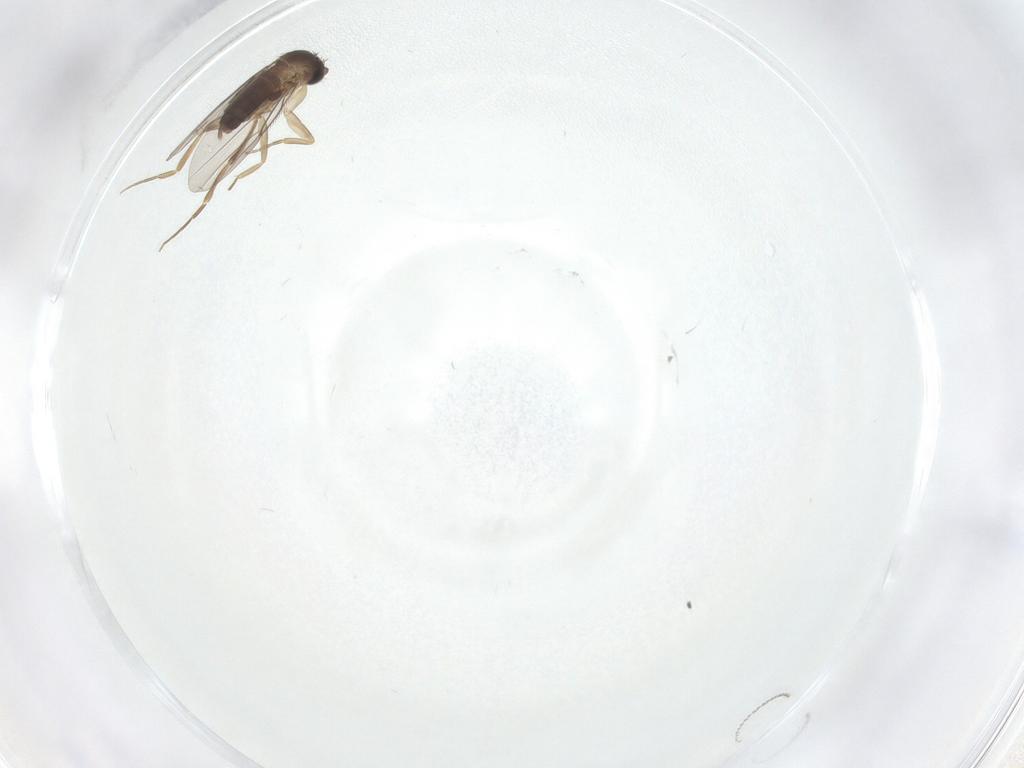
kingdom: Animalia
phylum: Arthropoda
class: Insecta
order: Diptera
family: Phoridae
